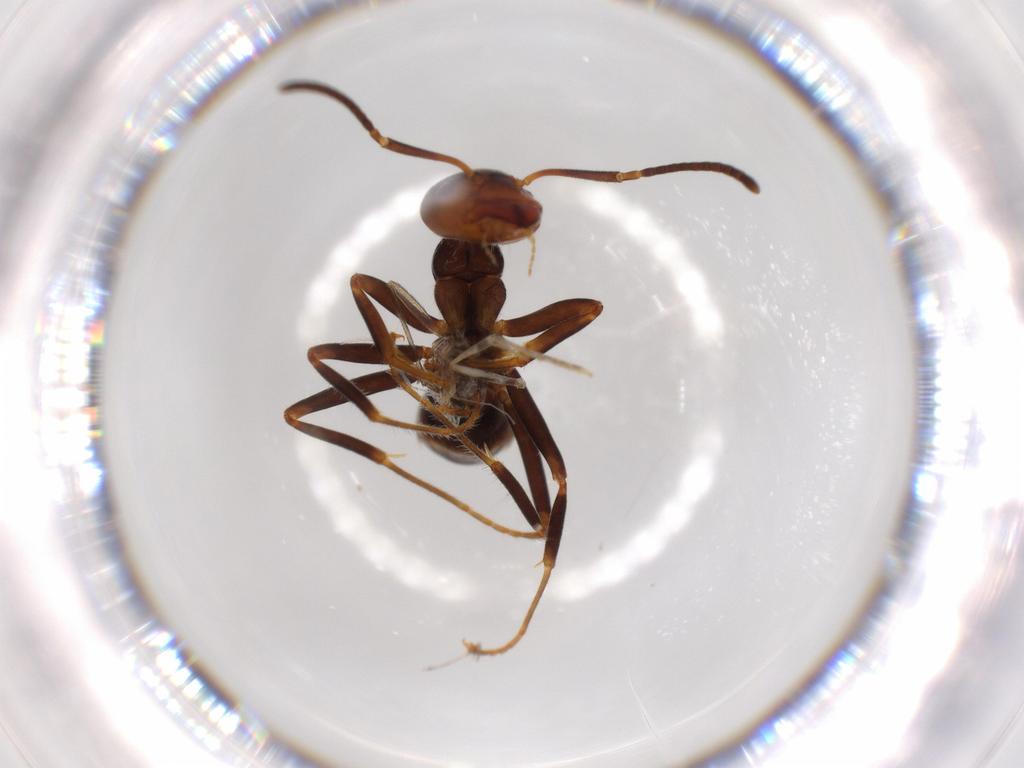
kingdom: Animalia
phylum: Arthropoda
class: Insecta
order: Hymenoptera
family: Formicidae
